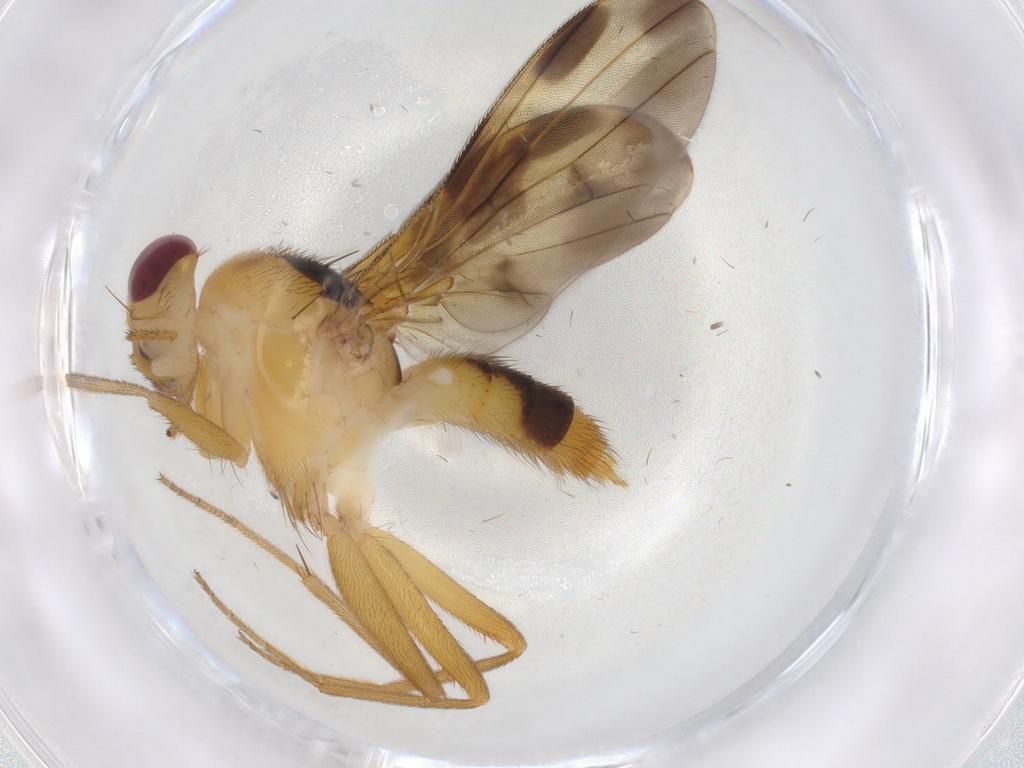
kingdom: Animalia
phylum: Arthropoda
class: Insecta
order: Diptera
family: Clusiidae
